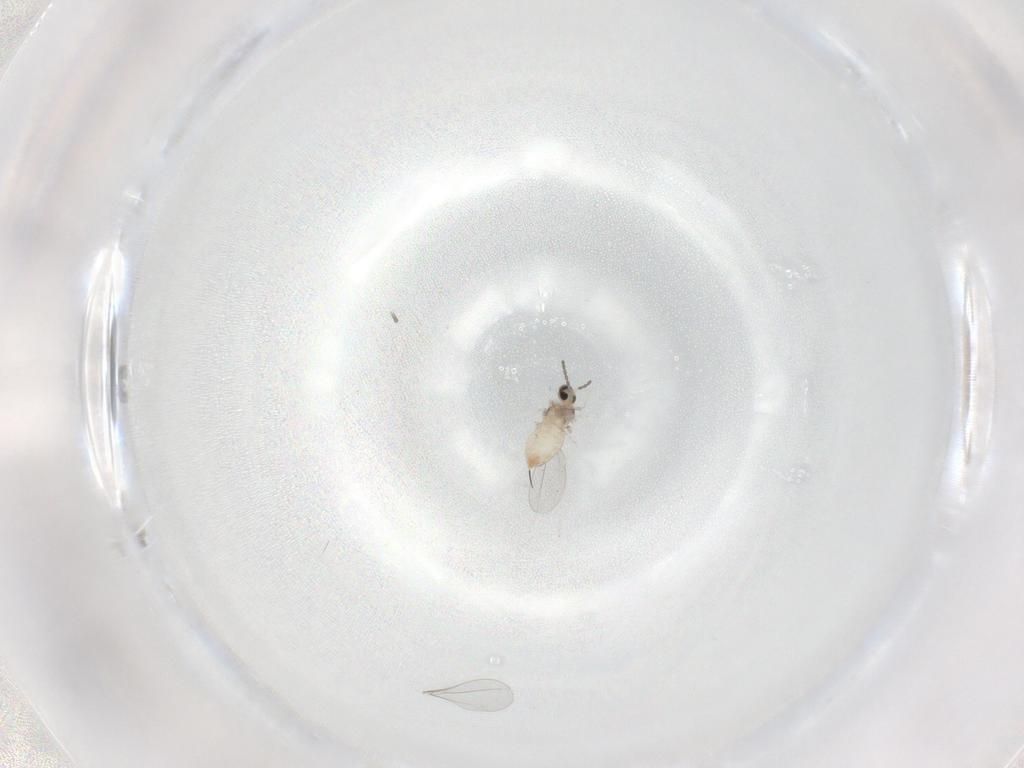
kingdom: Animalia
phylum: Arthropoda
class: Insecta
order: Diptera
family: Cecidomyiidae
